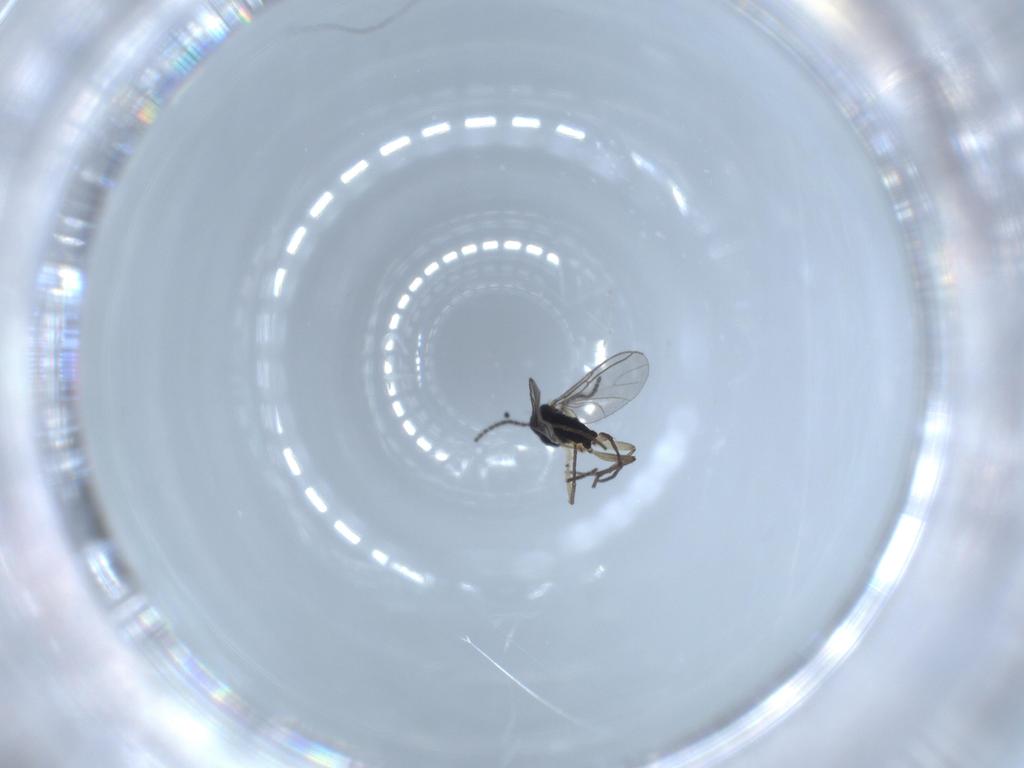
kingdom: Animalia
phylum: Arthropoda
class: Insecta
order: Diptera
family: Sciaridae
